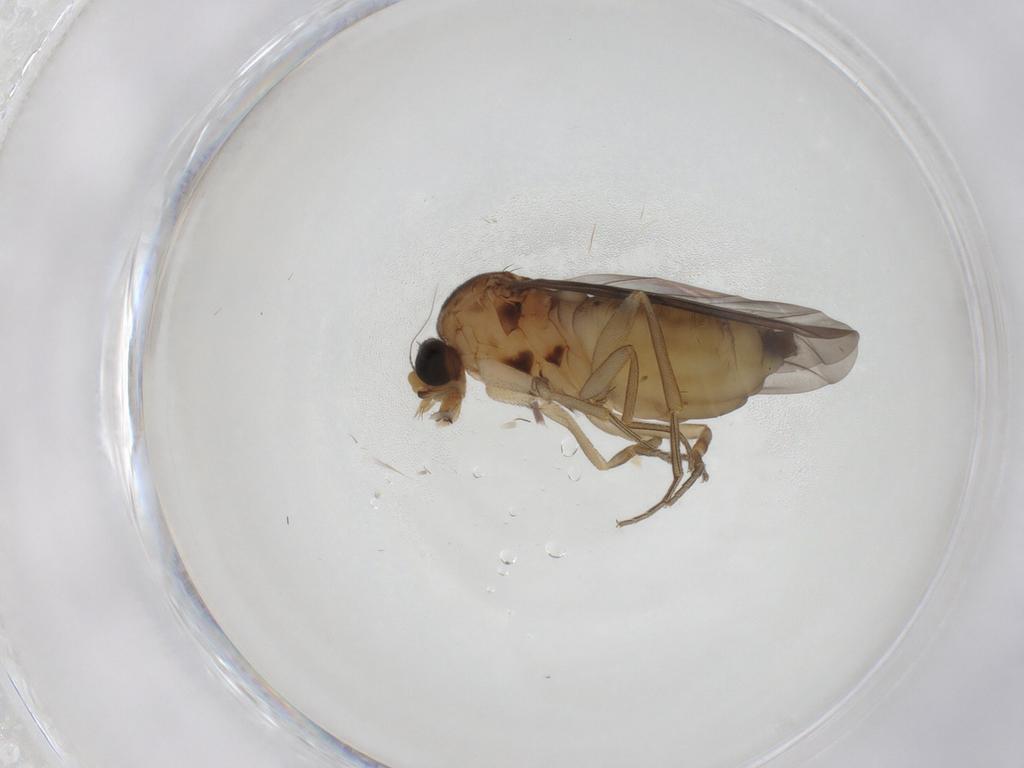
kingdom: Animalia
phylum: Arthropoda
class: Insecta
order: Diptera
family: Phoridae
